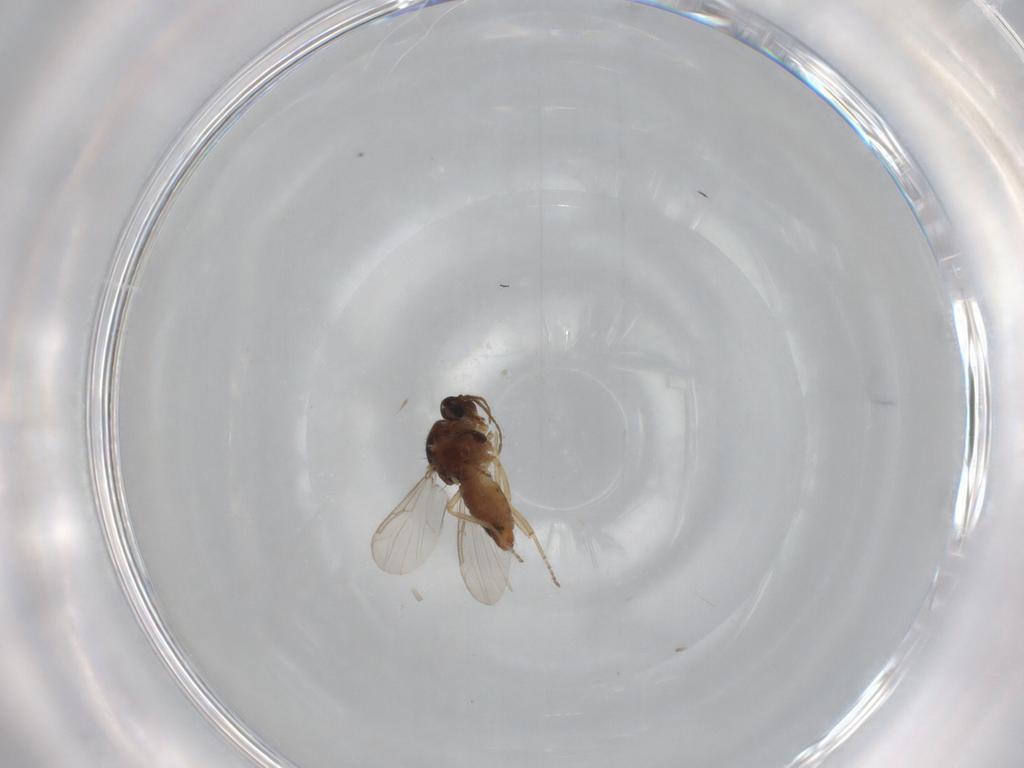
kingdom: Animalia
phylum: Arthropoda
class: Insecta
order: Diptera
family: Ceratopogonidae
